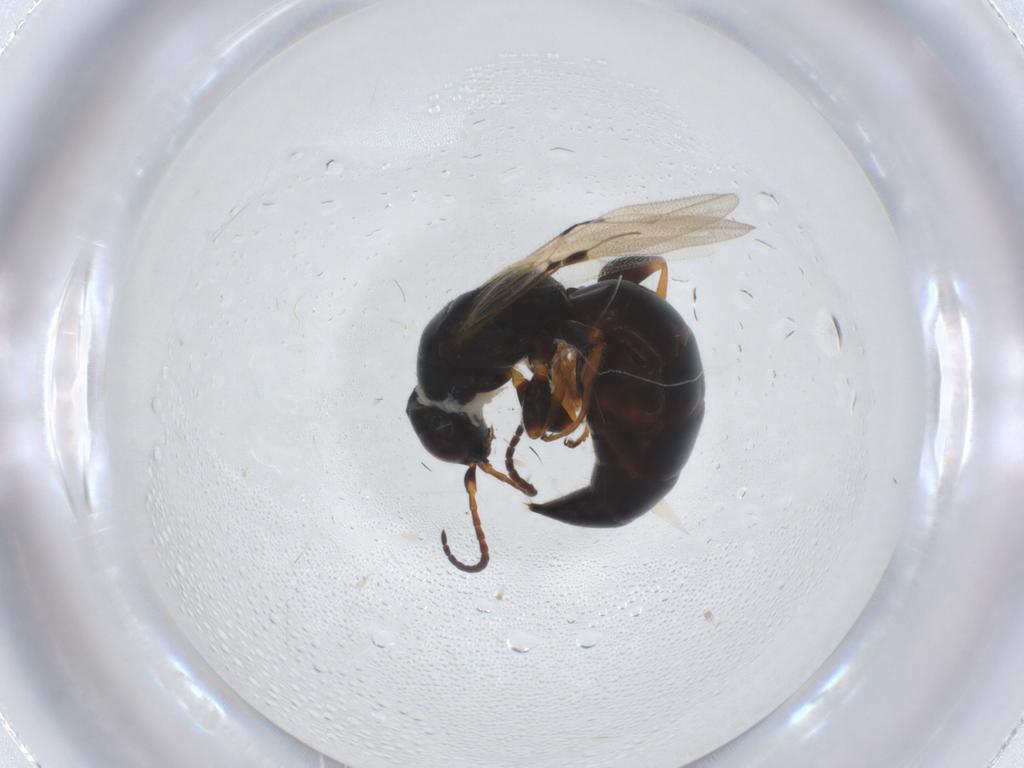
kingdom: Animalia
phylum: Arthropoda
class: Insecta
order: Hymenoptera
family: Bethylidae
